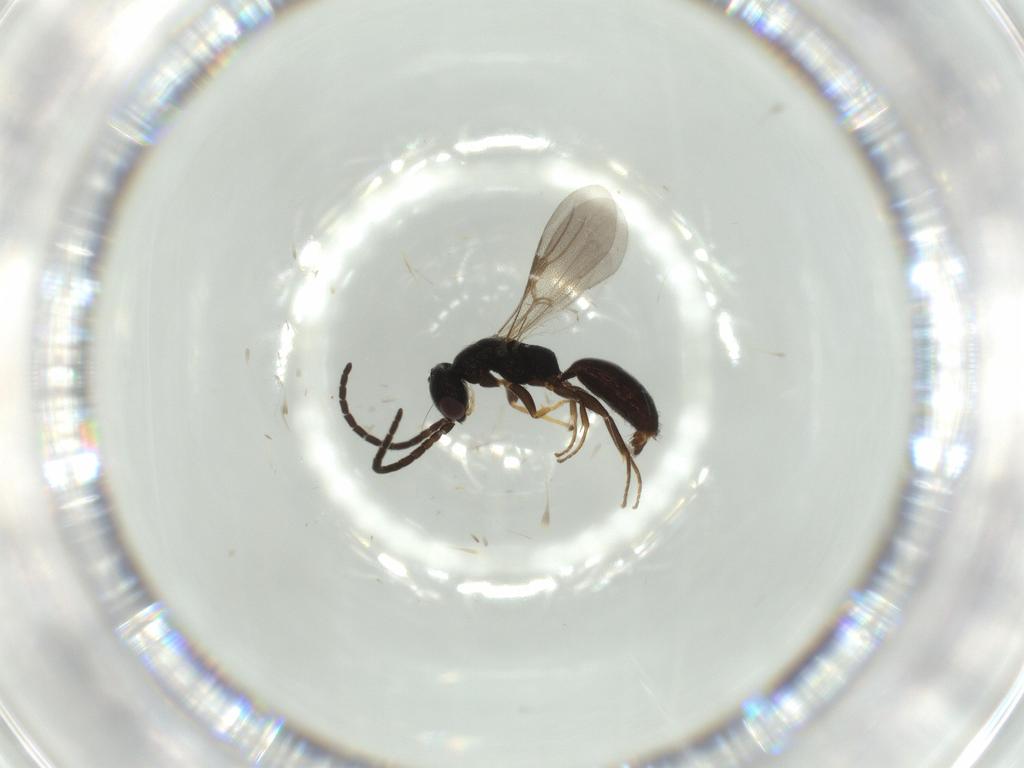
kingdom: Animalia
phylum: Arthropoda
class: Insecta
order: Hymenoptera
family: Bethylidae
